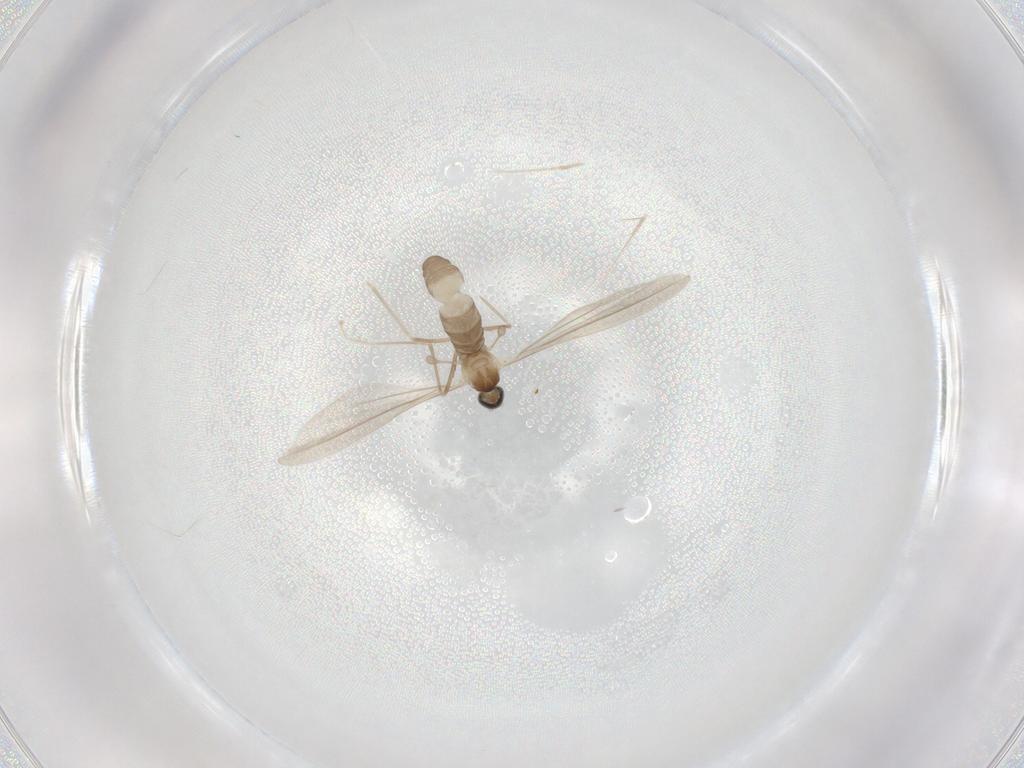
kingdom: Animalia
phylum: Arthropoda
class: Insecta
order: Diptera
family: Cecidomyiidae
